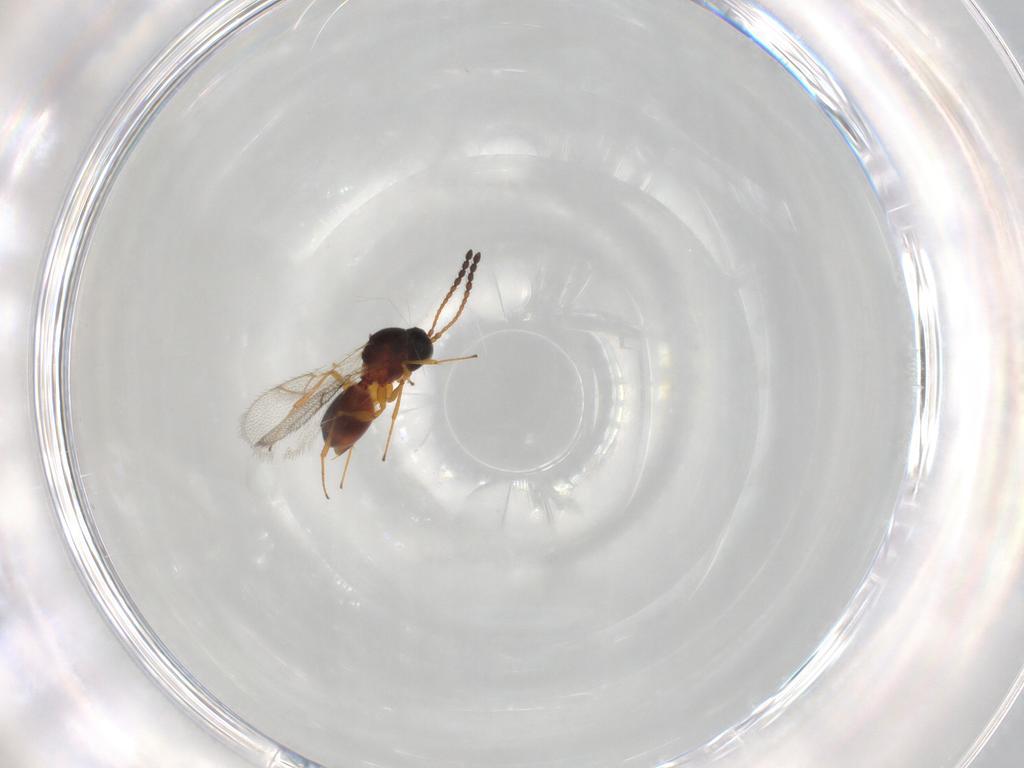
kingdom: Animalia
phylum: Arthropoda
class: Insecta
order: Hymenoptera
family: Figitidae
